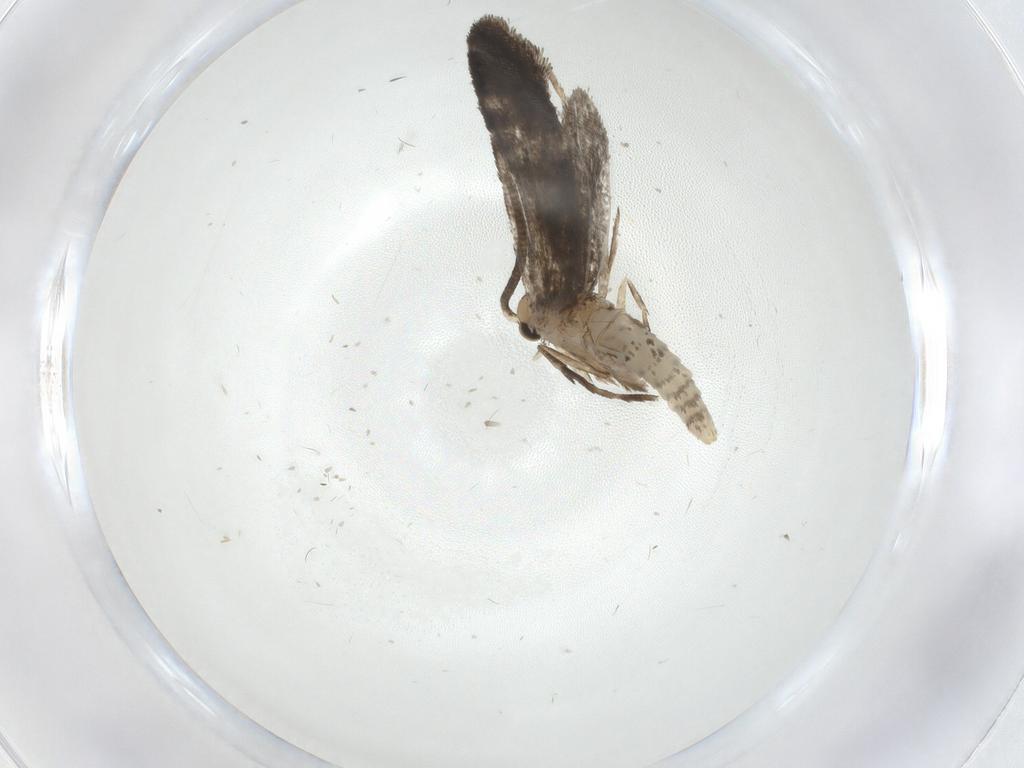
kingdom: Animalia
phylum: Arthropoda
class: Insecta
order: Lepidoptera
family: Nymphalidae
